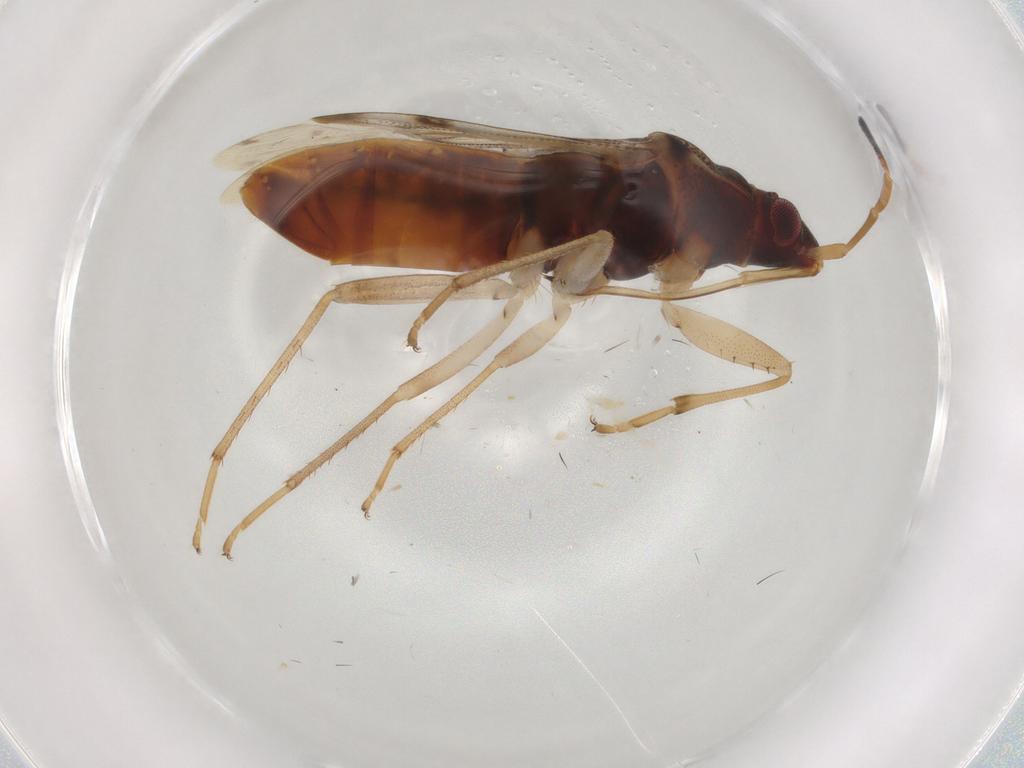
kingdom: Animalia
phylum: Arthropoda
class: Insecta
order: Hemiptera
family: Rhyparochromidae
